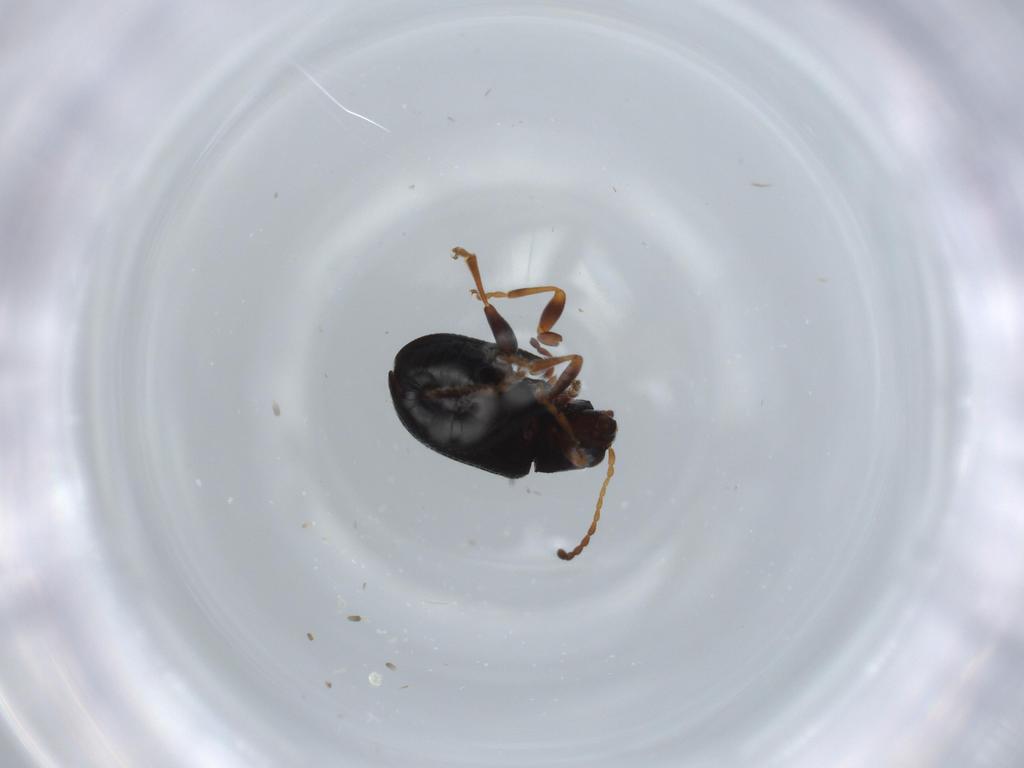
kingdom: Animalia
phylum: Arthropoda
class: Insecta
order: Coleoptera
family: Chrysomelidae
